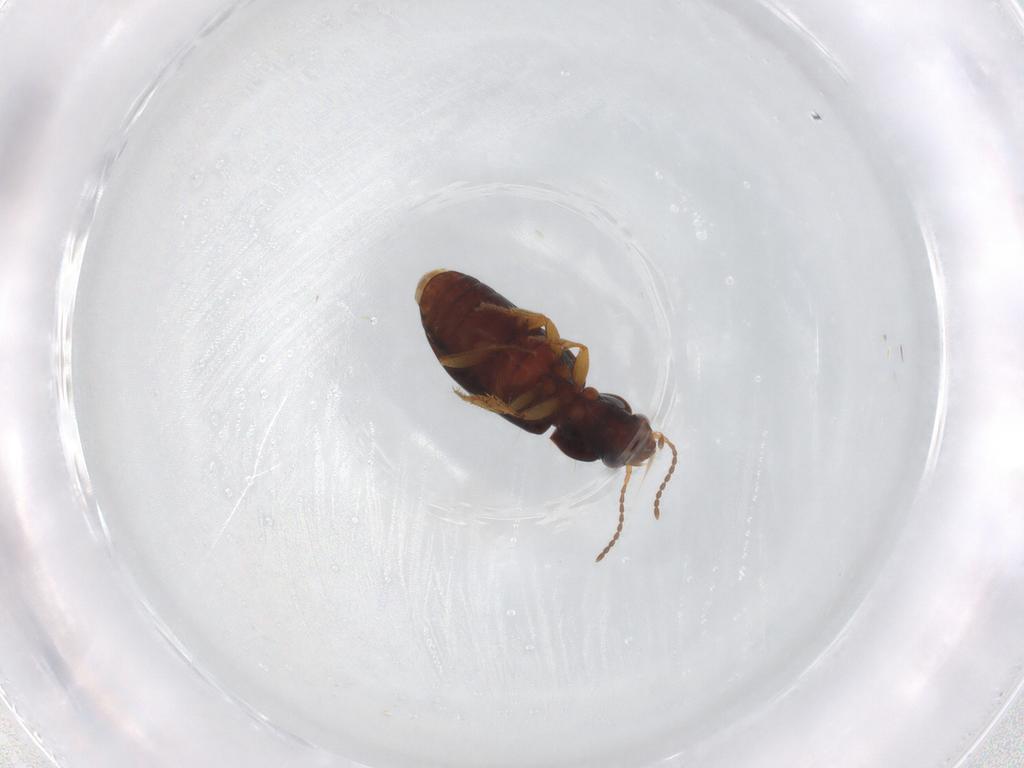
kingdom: Animalia
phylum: Arthropoda
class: Insecta
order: Coleoptera
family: Carabidae
